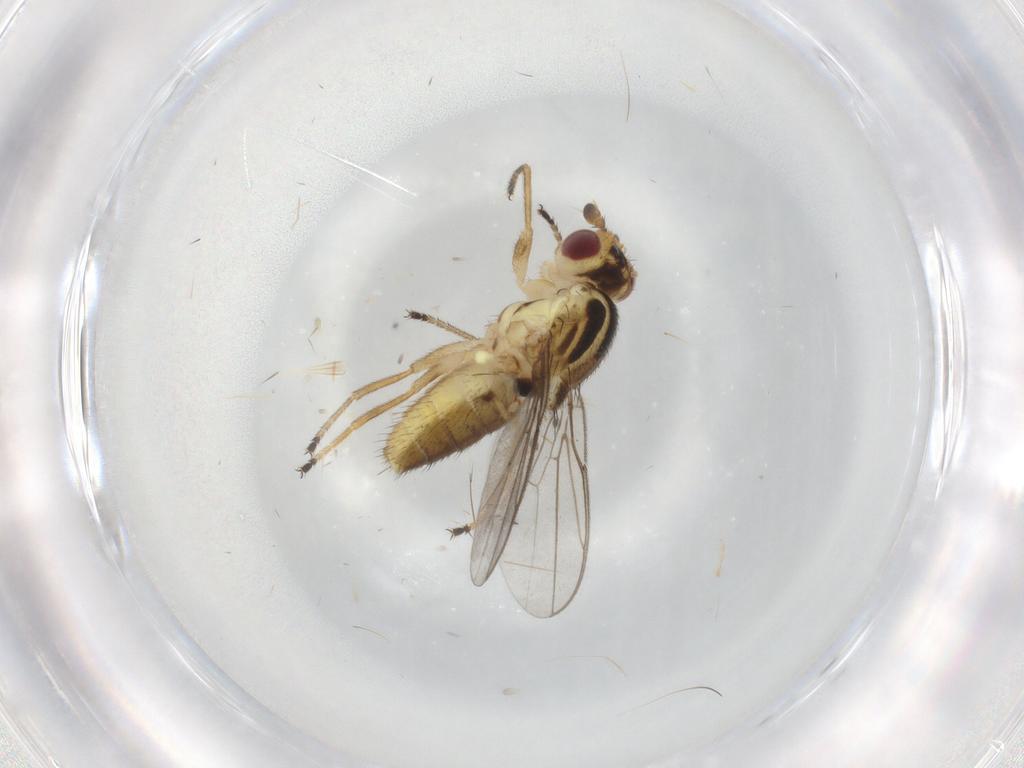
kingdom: Animalia
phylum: Arthropoda
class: Insecta
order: Diptera
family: Chloropidae
